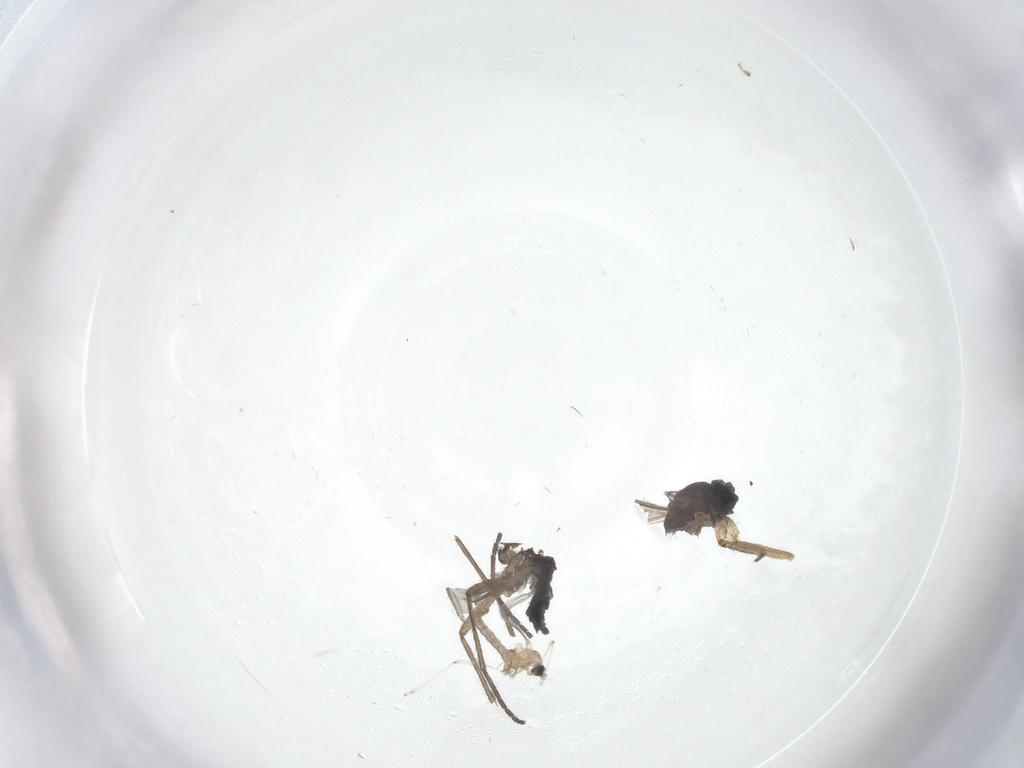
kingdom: Animalia
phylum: Arthropoda
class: Insecta
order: Diptera
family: Sciaridae
